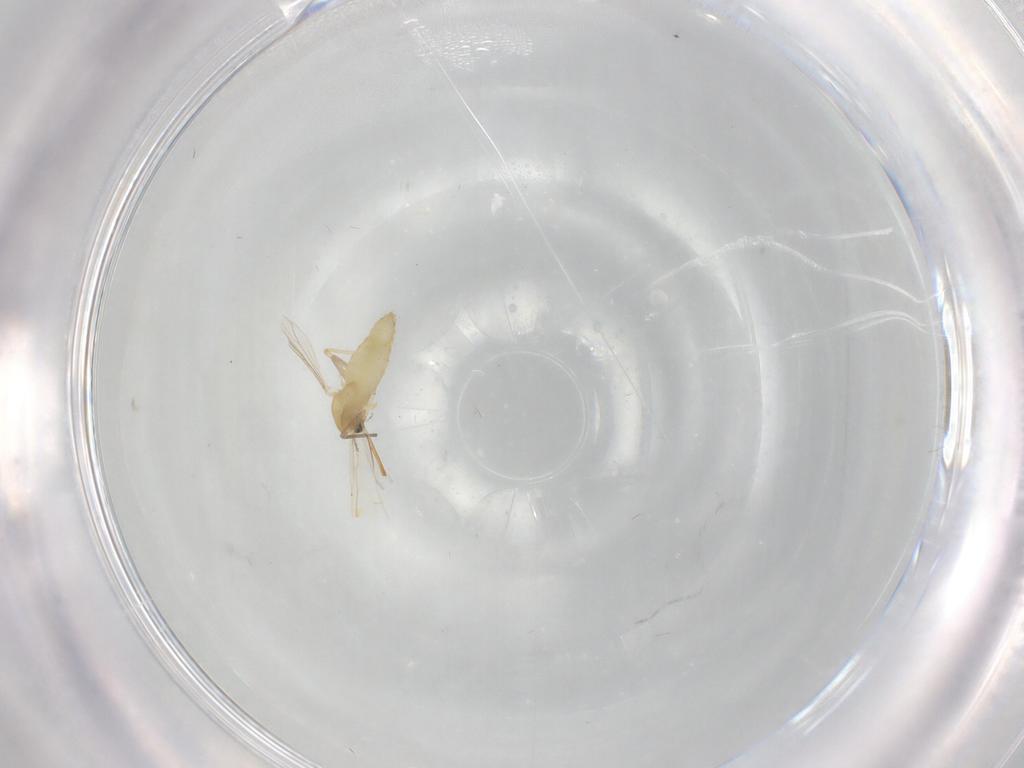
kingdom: Animalia
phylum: Arthropoda
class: Insecta
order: Diptera
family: Chironomidae
